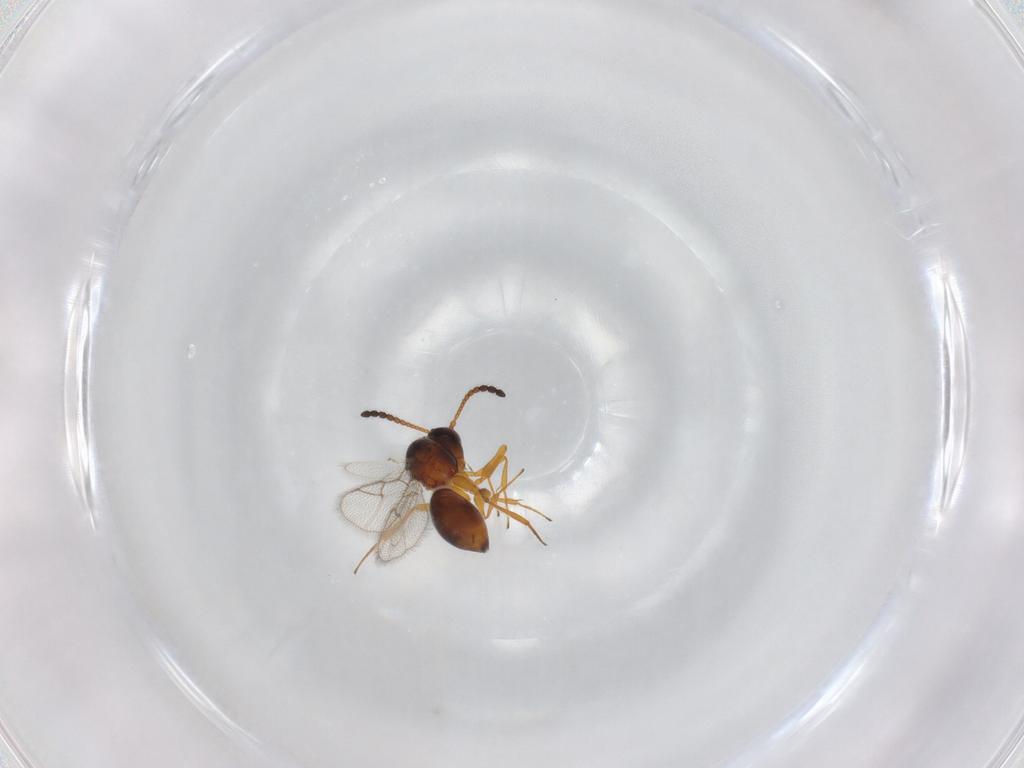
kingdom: Animalia
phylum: Arthropoda
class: Insecta
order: Hymenoptera
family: Figitidae
